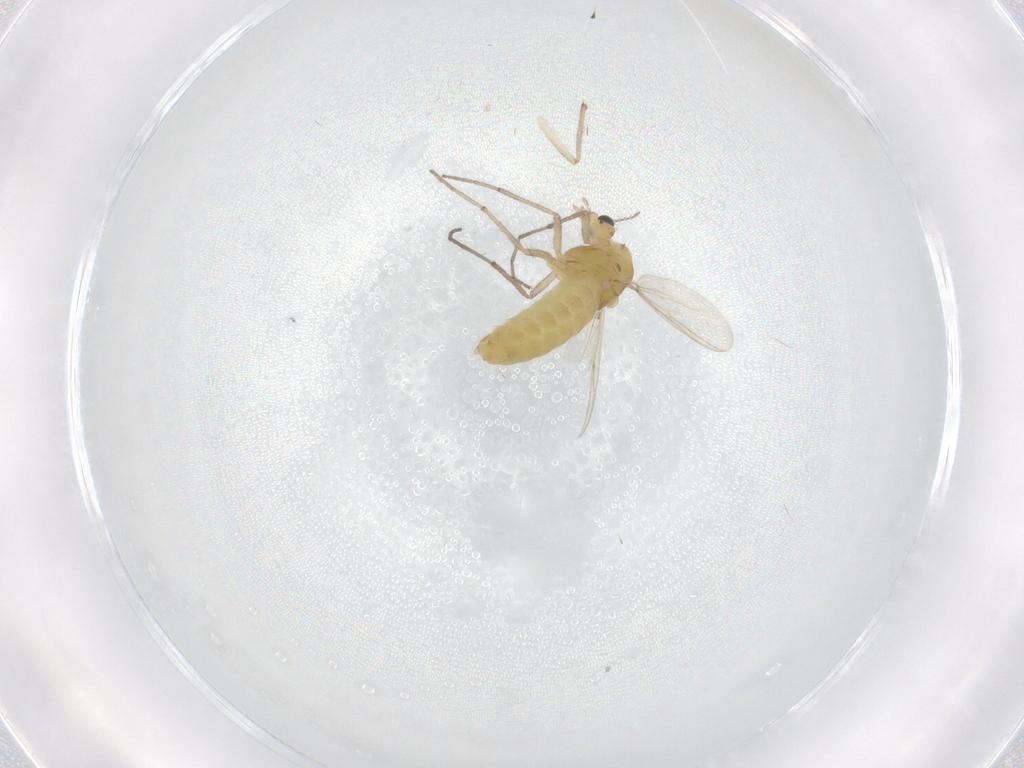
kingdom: Animalia
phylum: Arthropoda
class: Insecta
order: Diptera
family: Chironomidae
